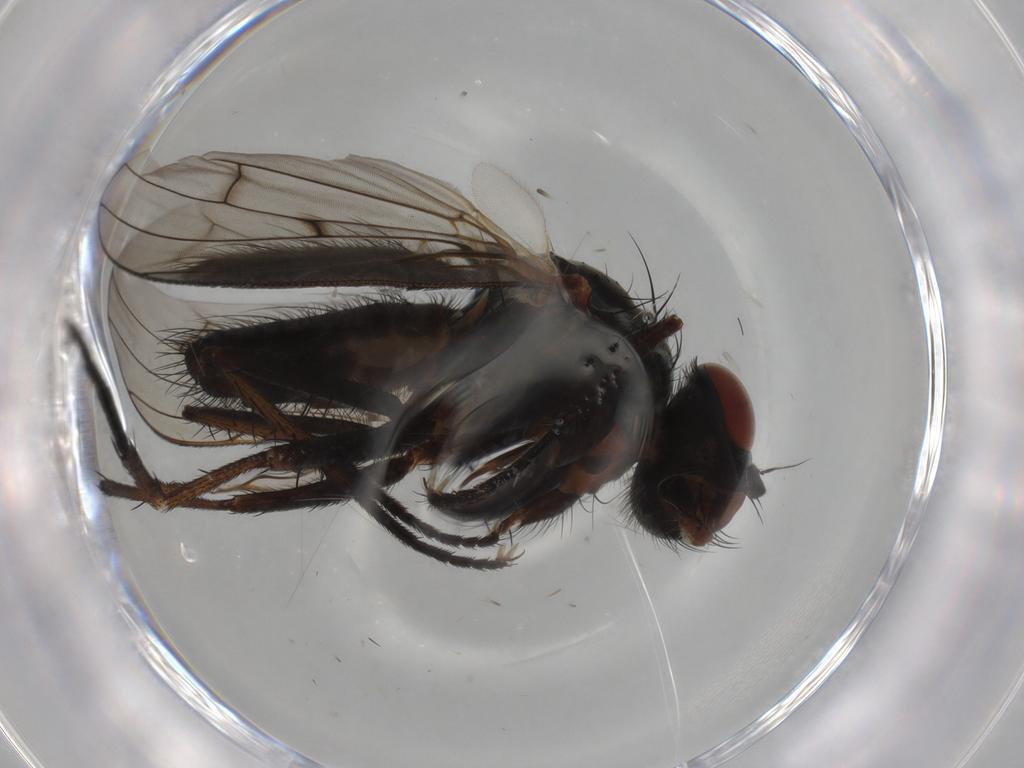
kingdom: Animalia
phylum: Arthropoda
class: Insecta
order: Diptera
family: Anthomyiidae
